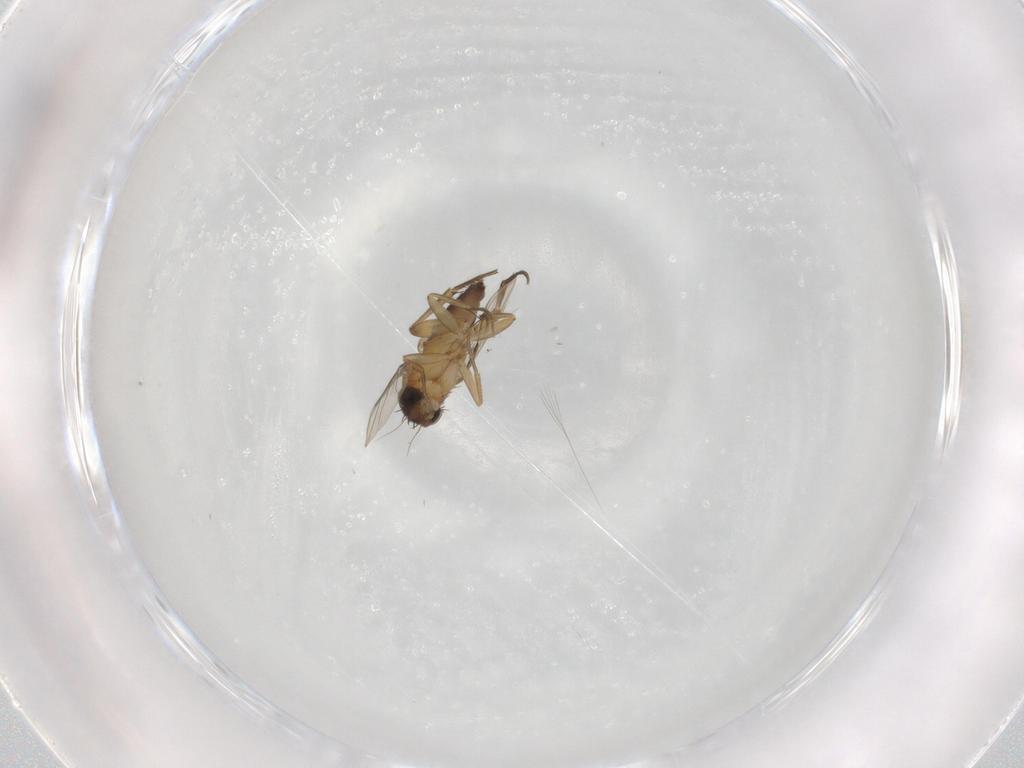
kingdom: Animalia
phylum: Arthropoda
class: Insecta
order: Diptera
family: Phoridae
